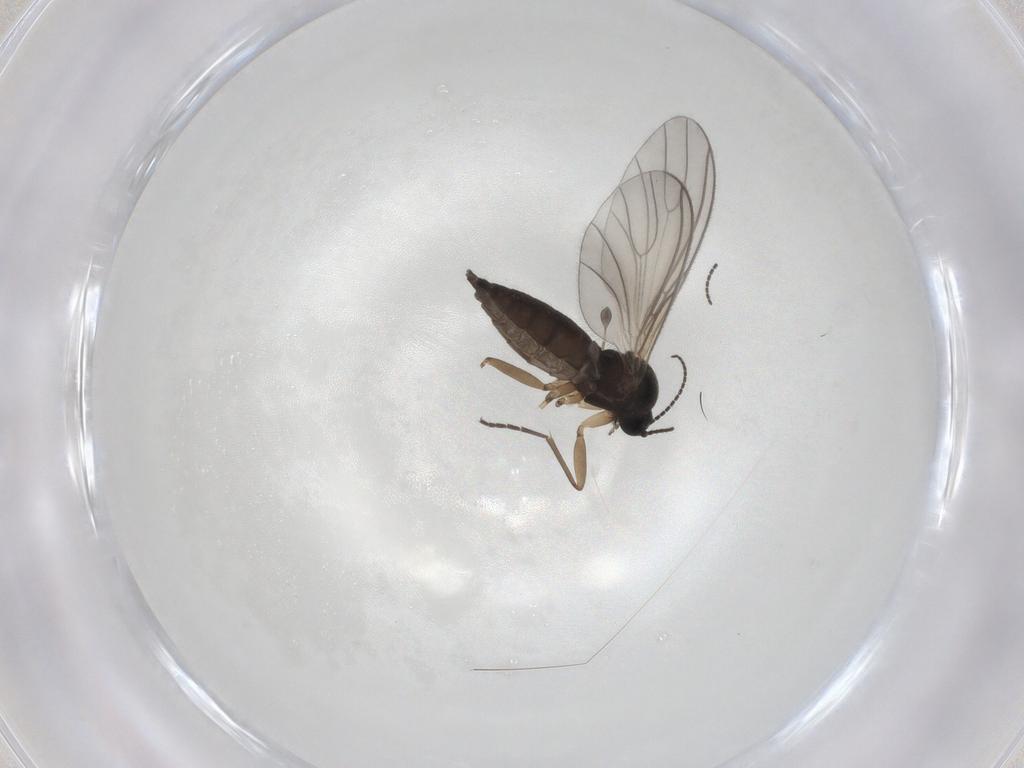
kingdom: Animalia
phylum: Arthropoda
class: Insecta
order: Diptera
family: Sciaridae
